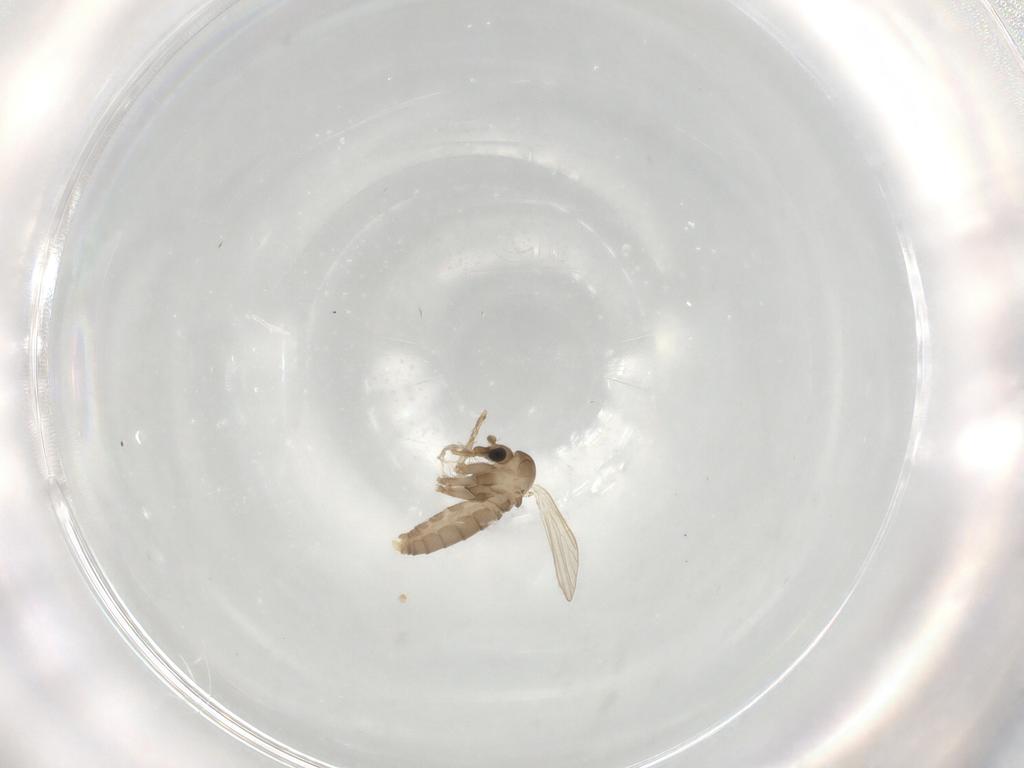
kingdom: Animalia
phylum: Arthropoda
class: Insecta
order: Diptera
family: Psychodidae
